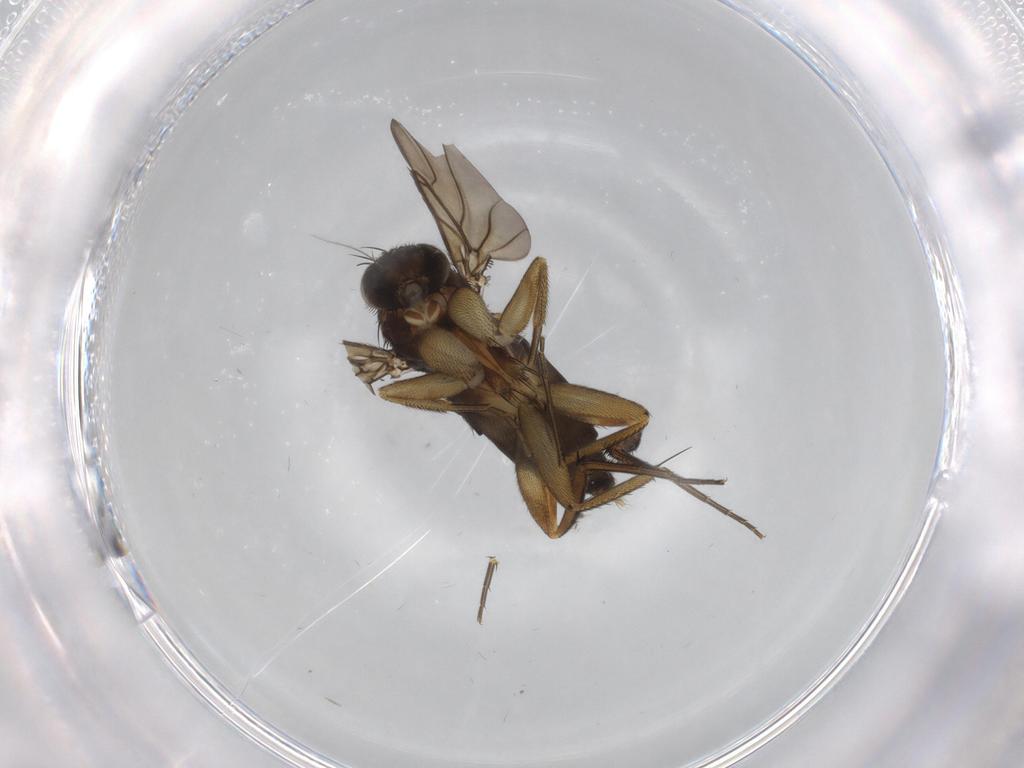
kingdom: Animalia
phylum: Arthropoda
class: Insecta
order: Diptera
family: Phoridae
